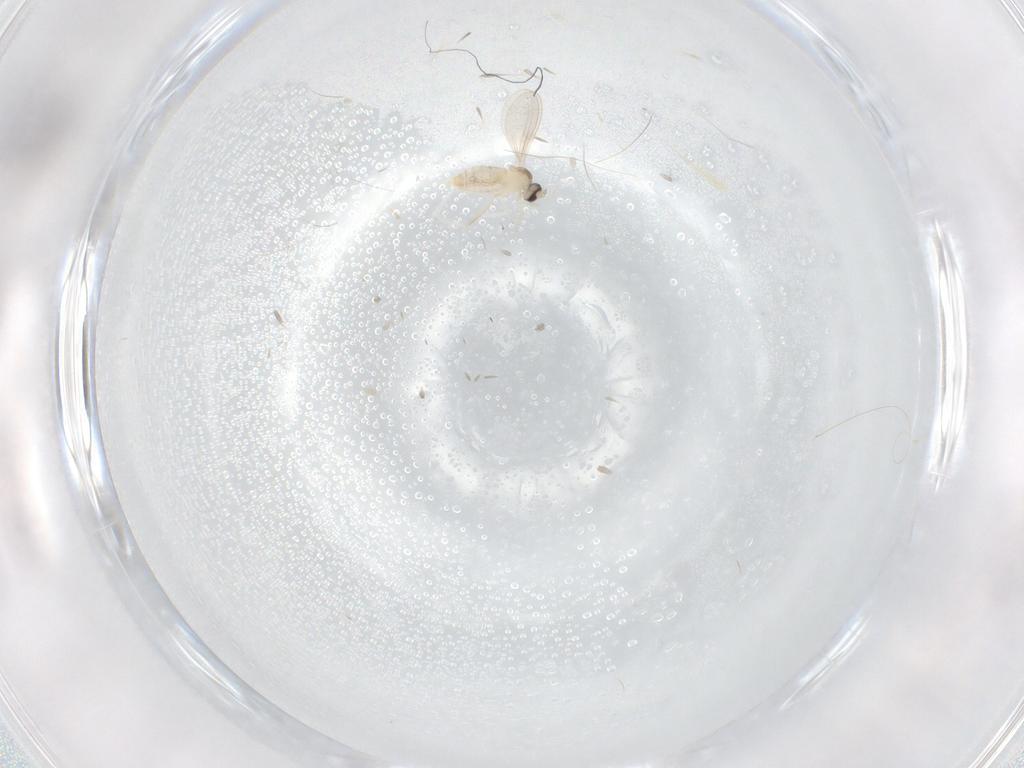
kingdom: Animalia
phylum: Arthropoda
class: Insecta
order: Diptera
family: Cecidomyiidae
